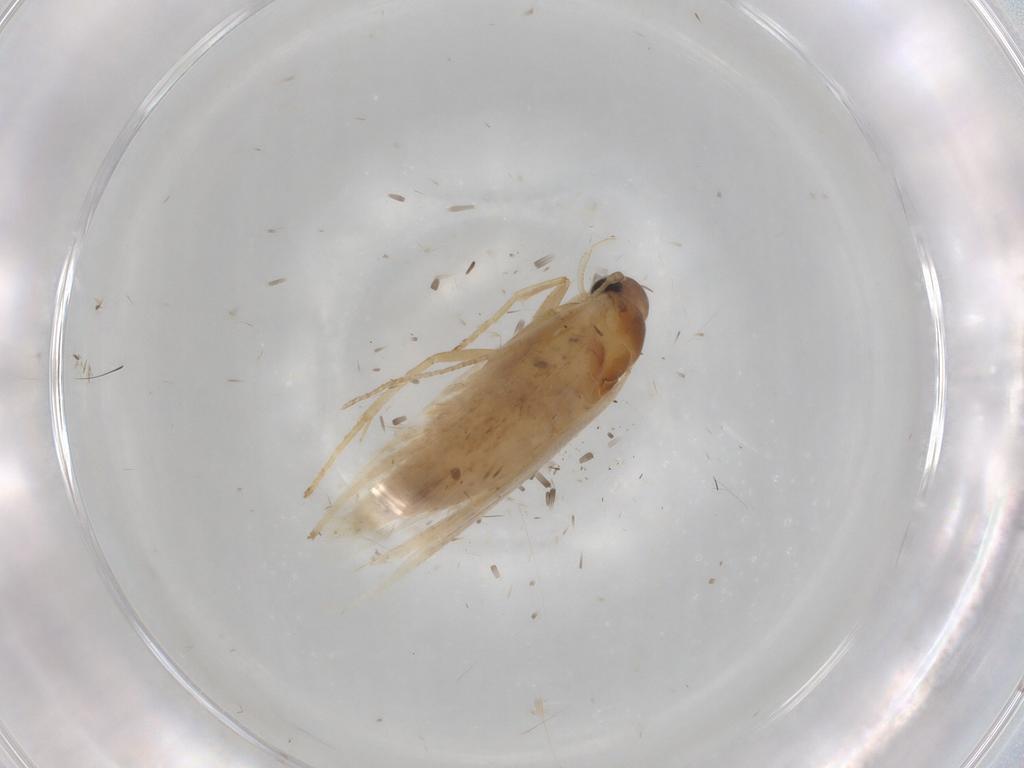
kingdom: Animalia
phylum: Arthropoda
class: Insecta
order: Lepidoptera
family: Gelechiidae
